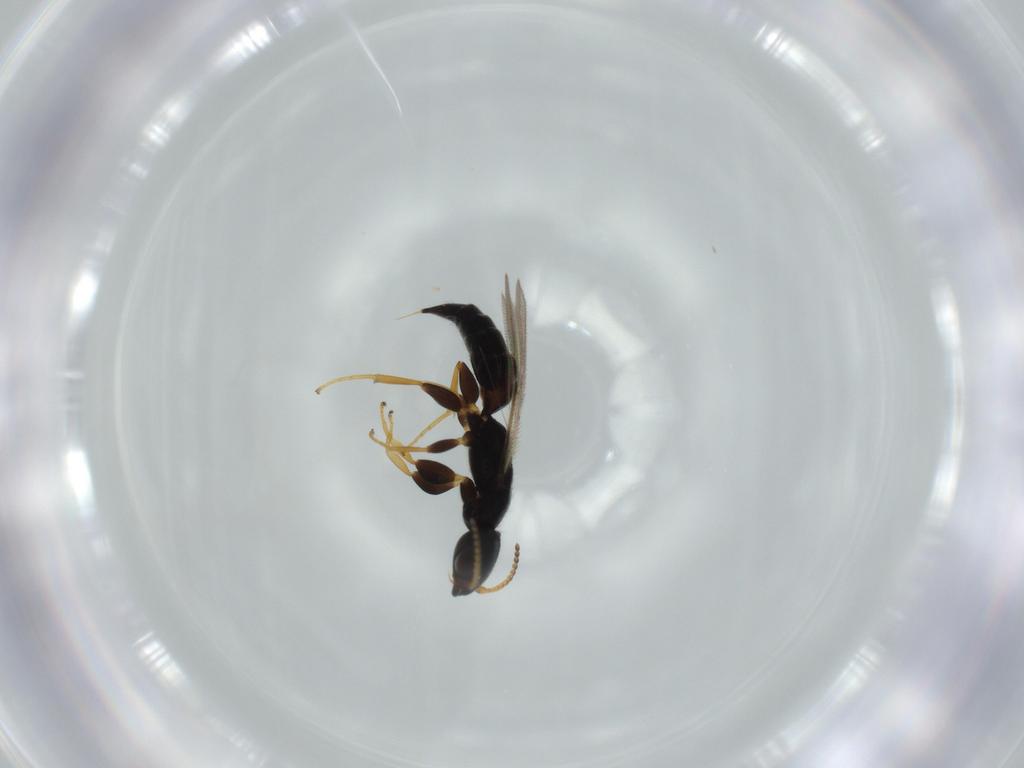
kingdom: Animalia
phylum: Arthropoda
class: Insecta
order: Hymenoptera
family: Bethylidae
